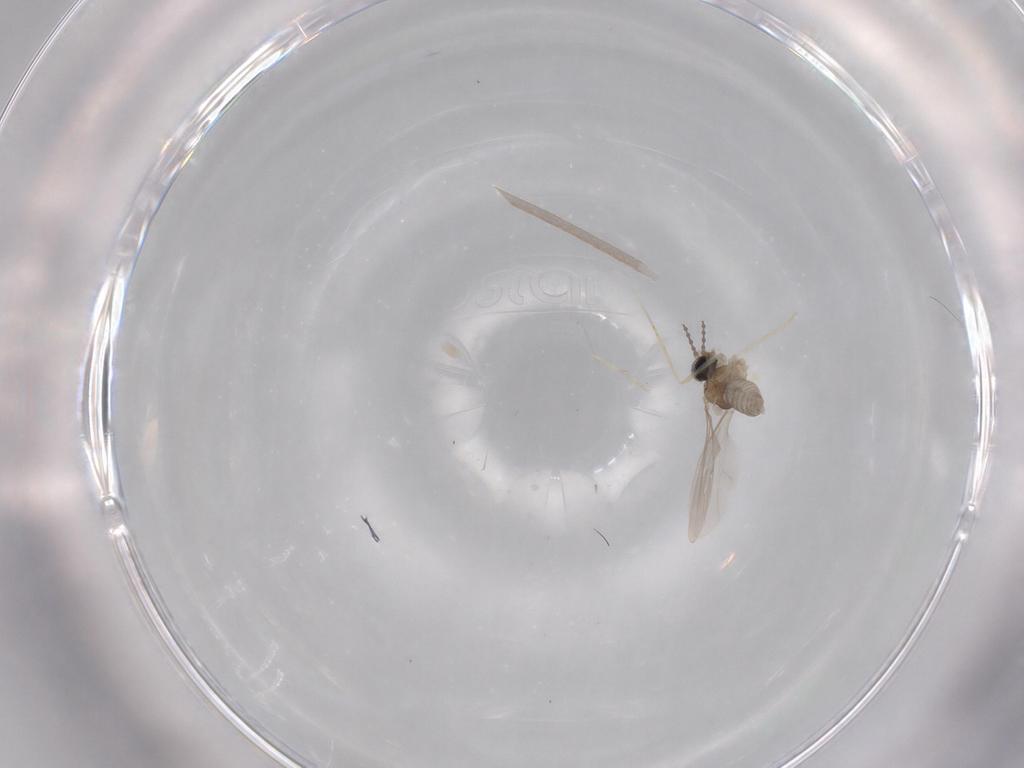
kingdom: Animalia
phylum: Arthropoda
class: Insecta
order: Diptera
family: Cecidomyiidae
